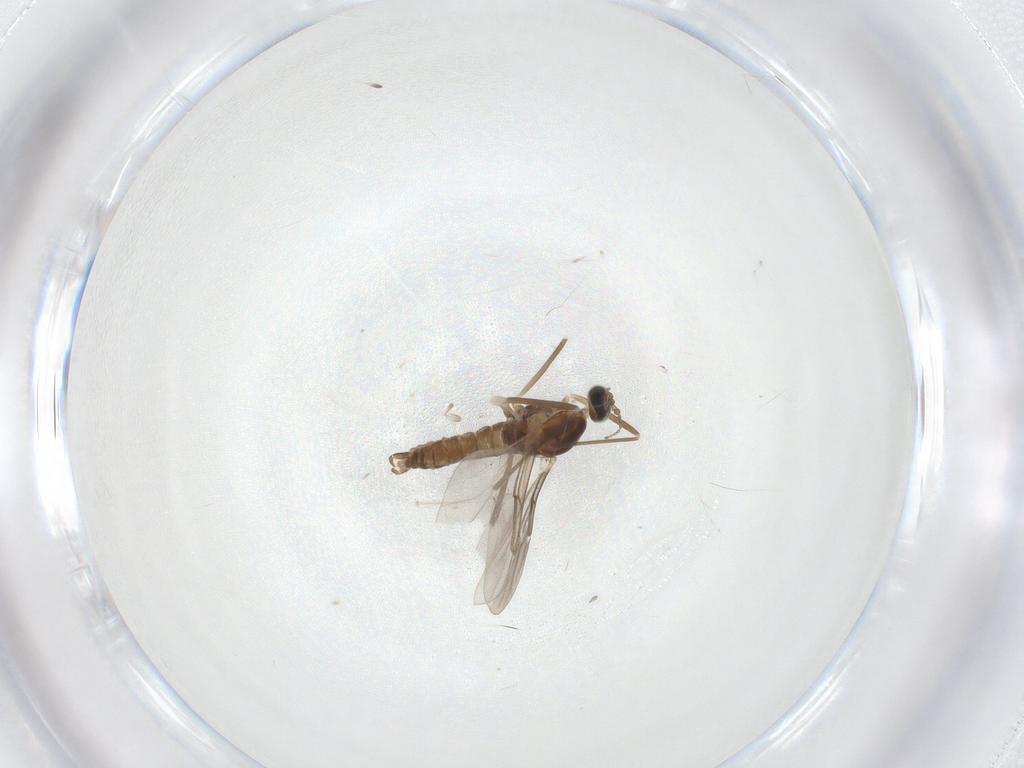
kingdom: Animalia
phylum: Arthropoda
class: Insecta
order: Diptera
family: Cecidomyiidae
